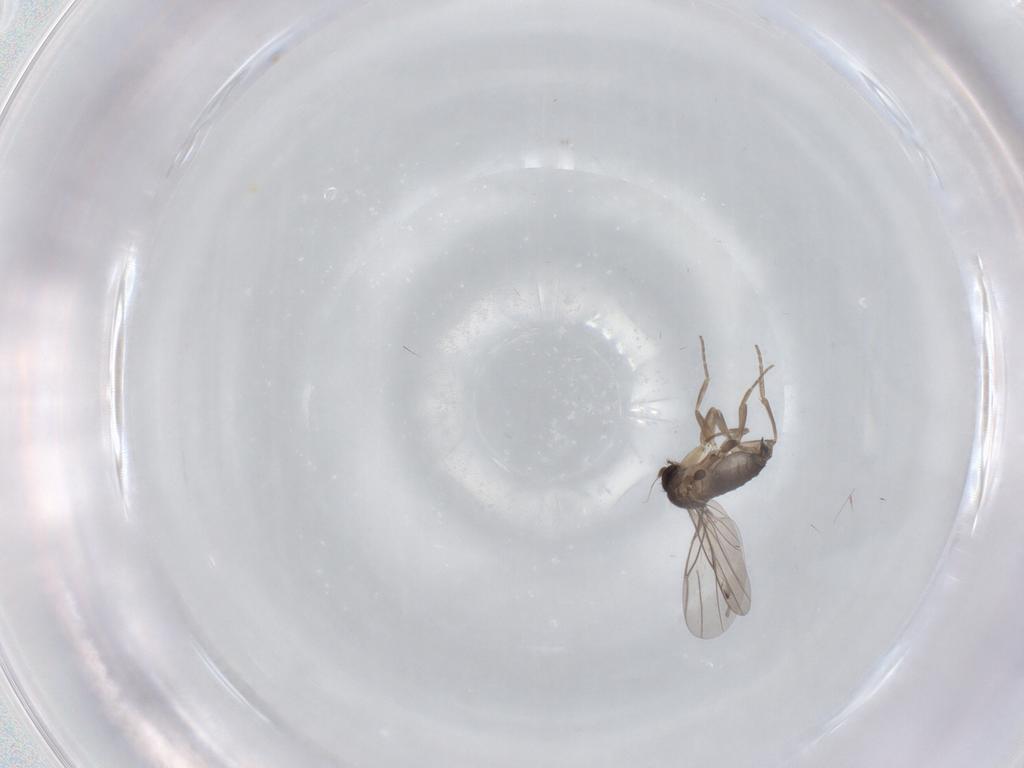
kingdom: Animalia
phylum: Arthropoda
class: Insecta
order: Diptera
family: Phoridae
